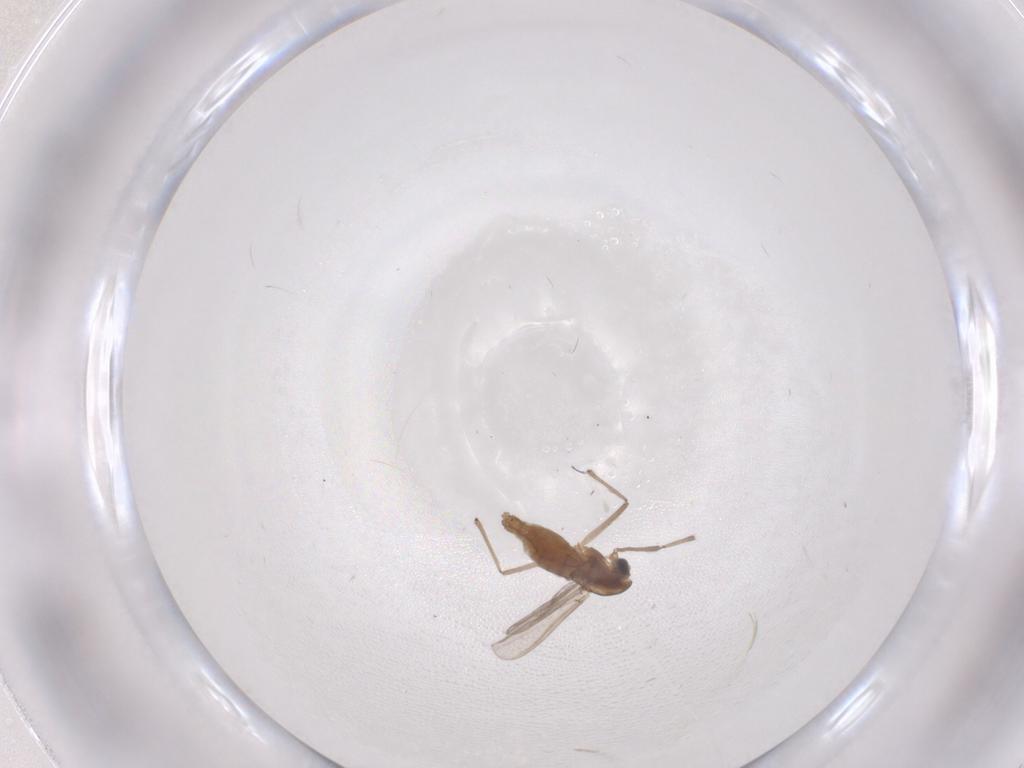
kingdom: Animalia
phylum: Arthropoda
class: Insecta
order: Diptera
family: Chironomidae
